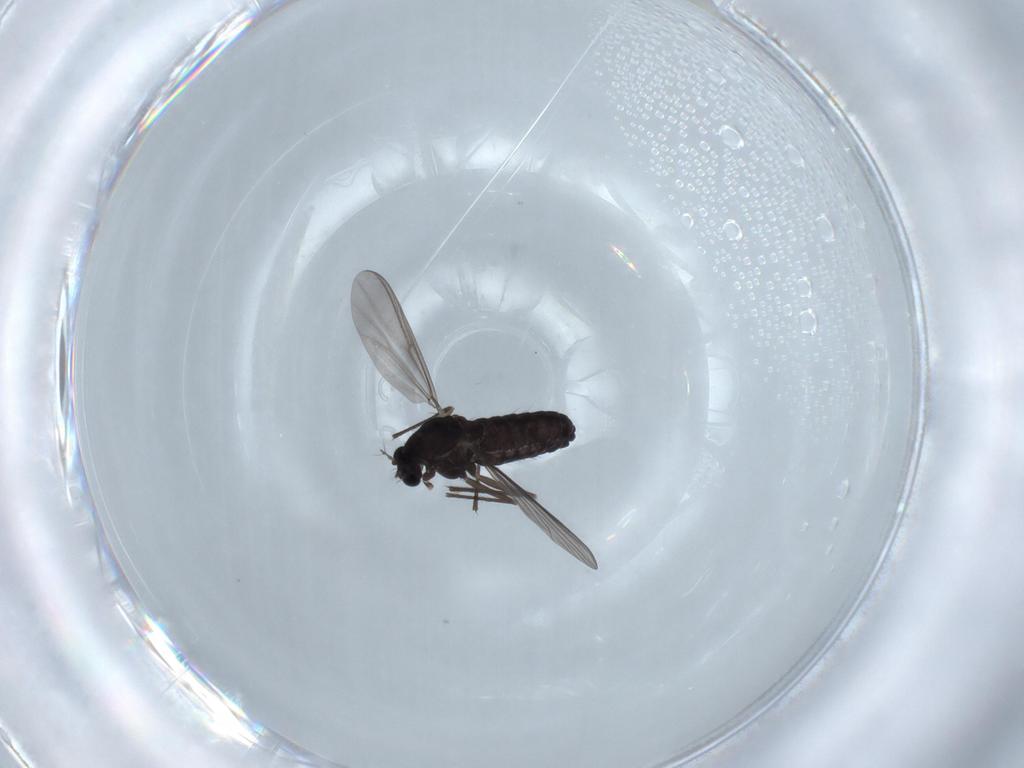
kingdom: Animalia
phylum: Arthropoda
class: Insecta
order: Diptera
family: Chironomidae
